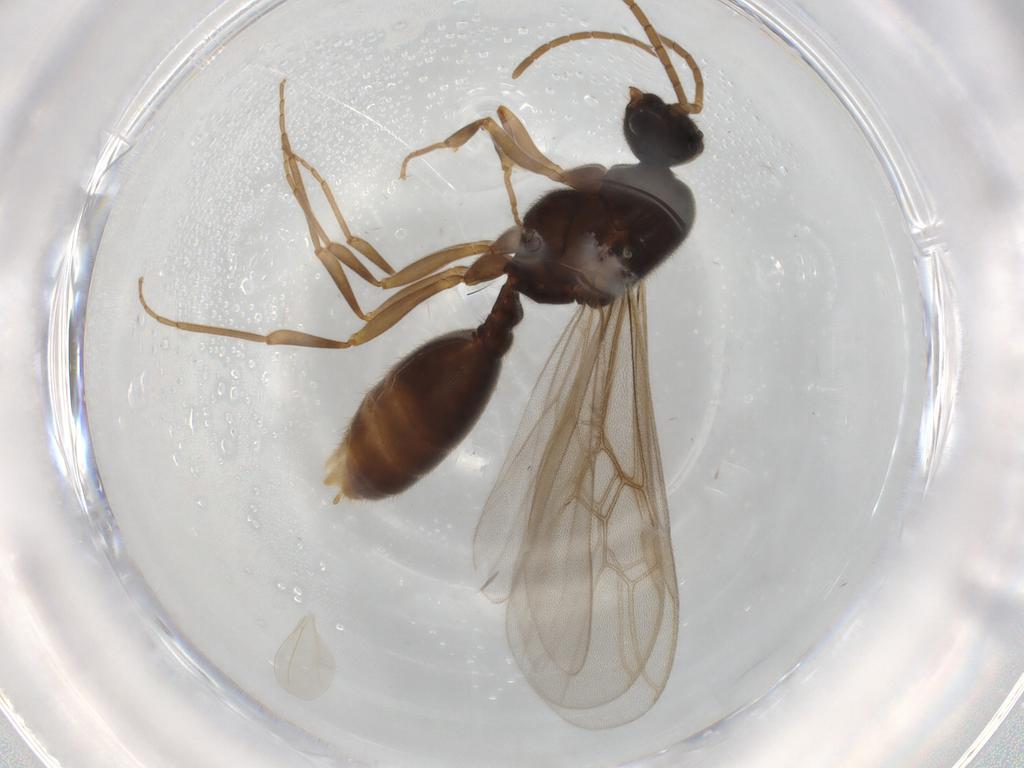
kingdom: Animalia
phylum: Arthropoda
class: Insecta
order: Hymenoptera
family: Formicidae
